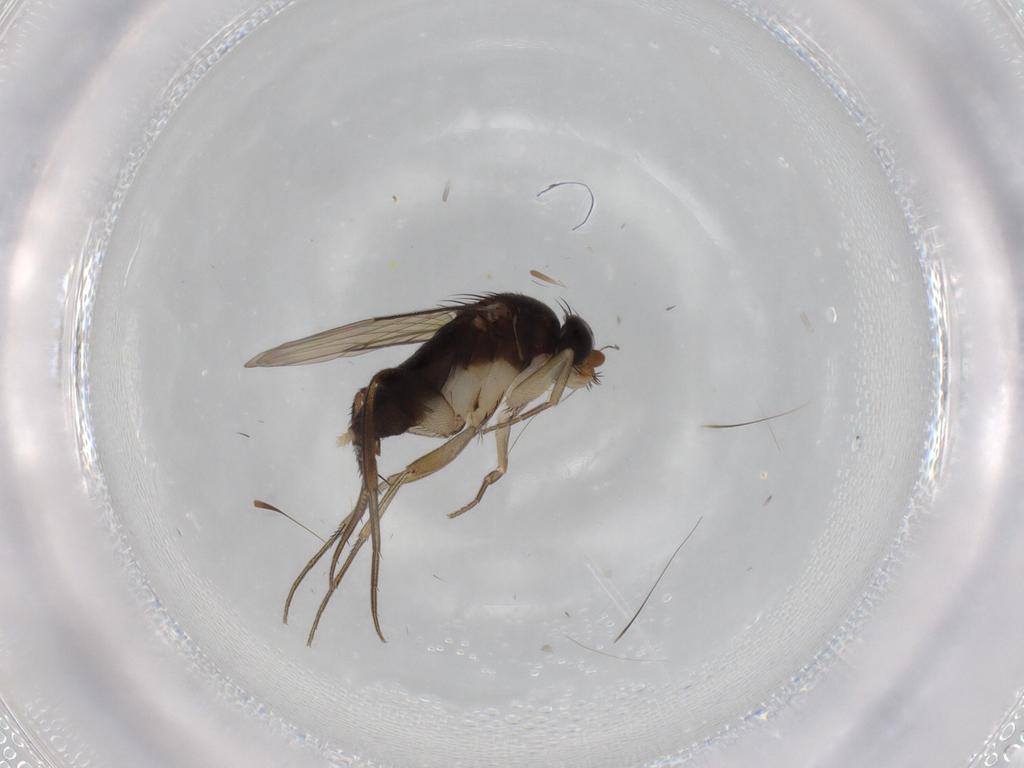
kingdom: Animalia
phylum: Arthropoda
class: Insecta
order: Diptera
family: Phoridae
